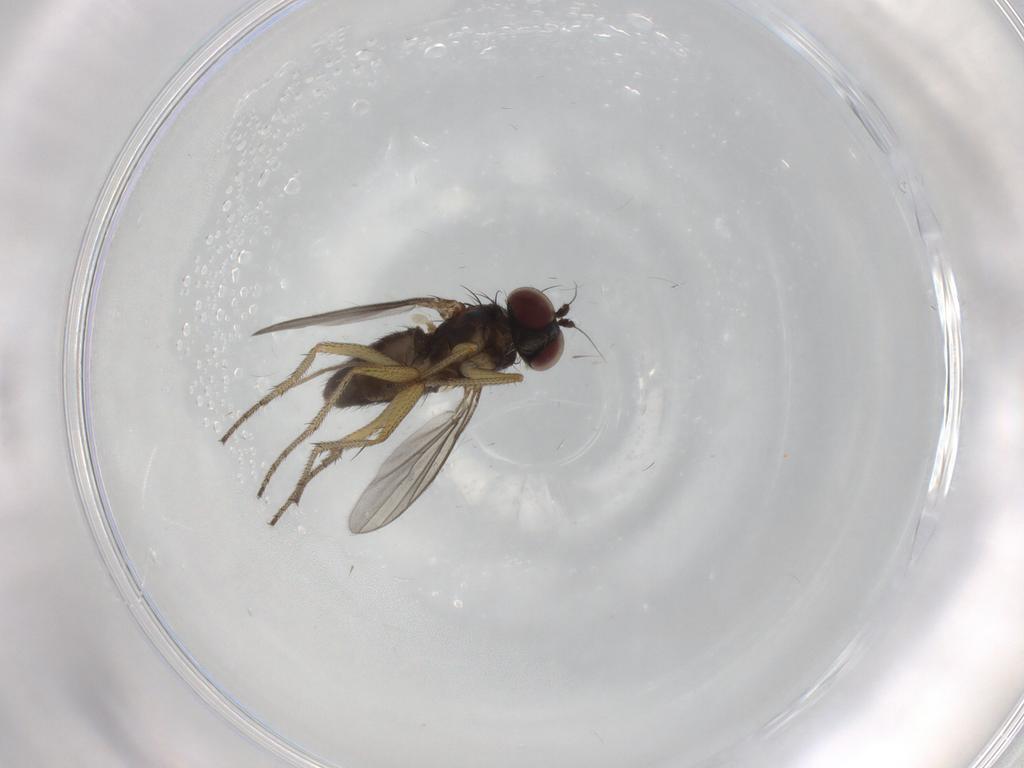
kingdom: Animalia
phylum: Arthropoda
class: Insecta
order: Diptera
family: Chironomidae
